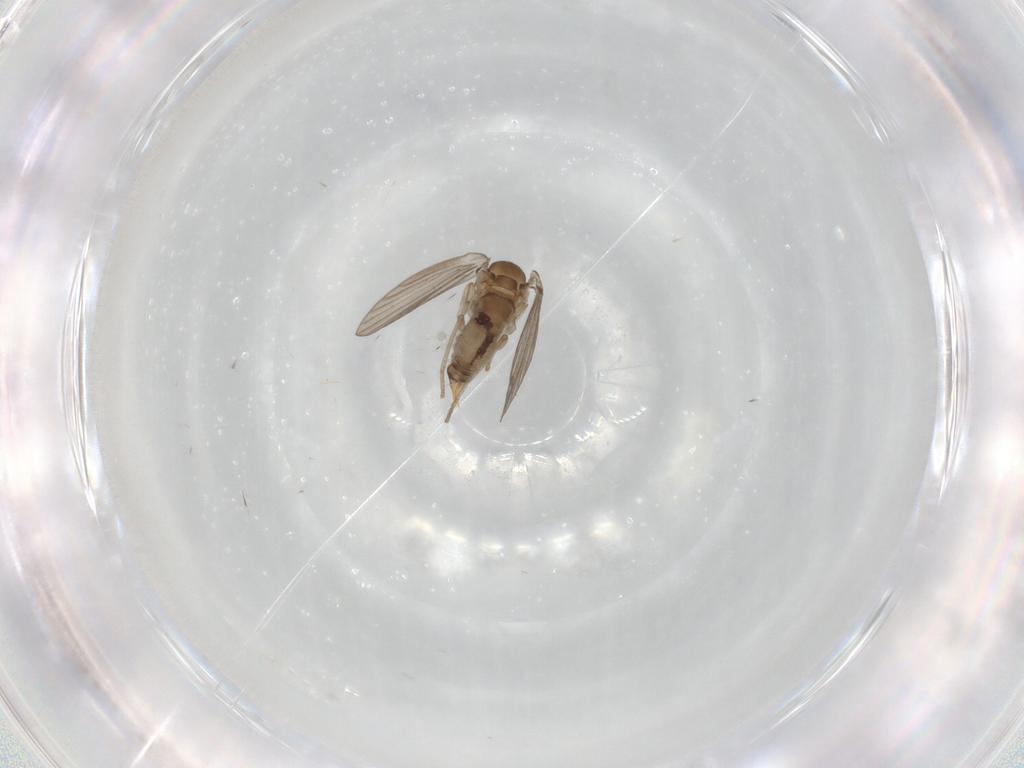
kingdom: Animalia
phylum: Arthropoda
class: Insecta
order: Diptera
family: Psychodidae
